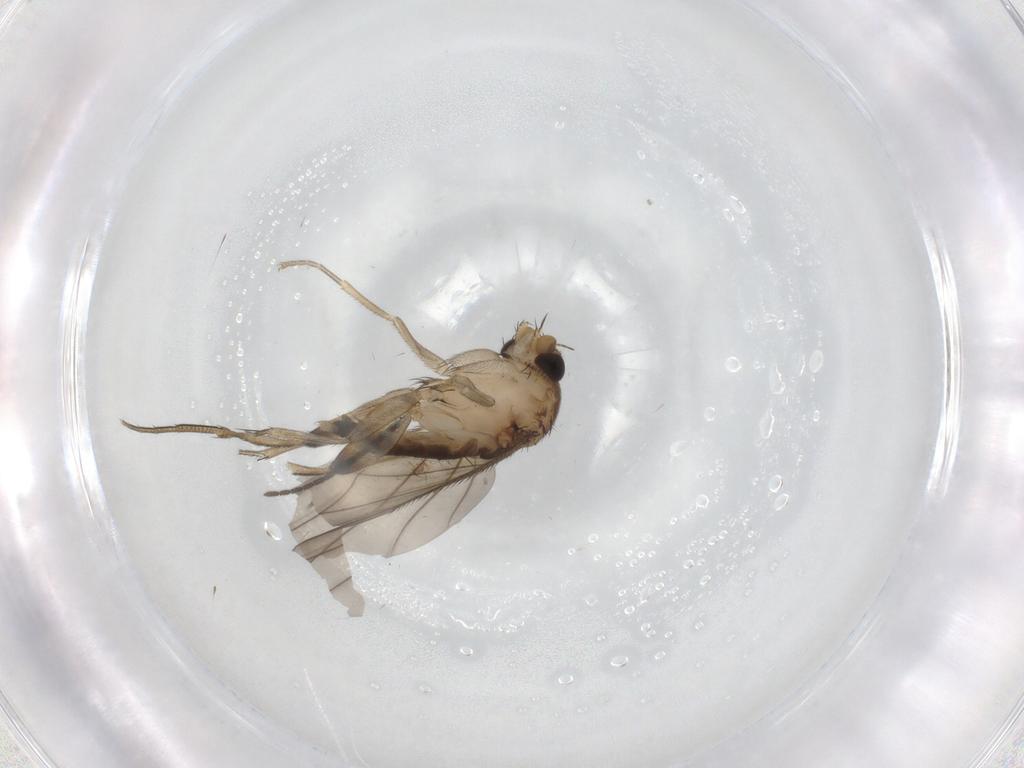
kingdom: Animalia
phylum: Arthropoda
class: Insecta
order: Diptera
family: Phoridae
